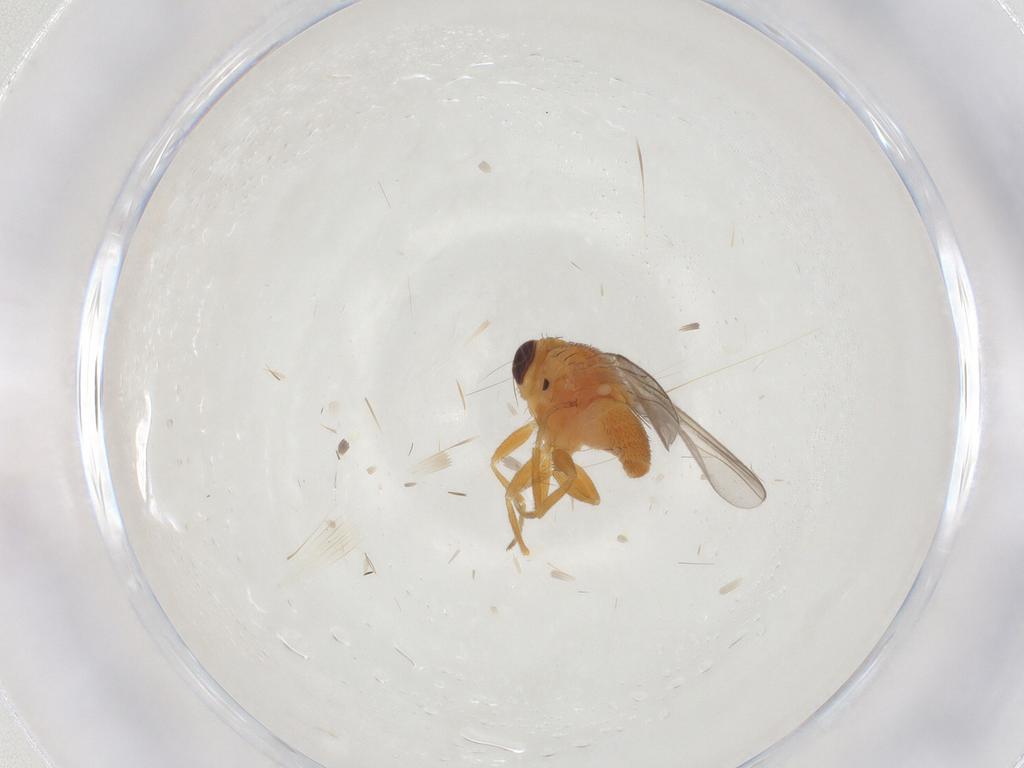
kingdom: Animalia
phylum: Arthropoda
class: Insecta
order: Diptera
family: Chloropidae
